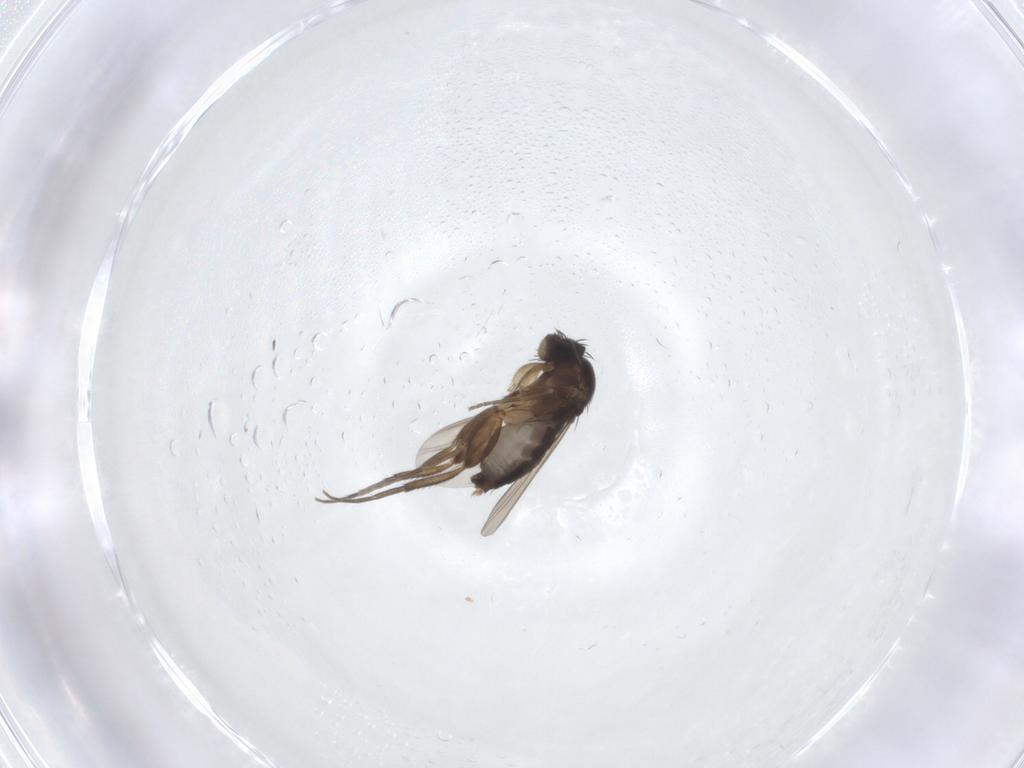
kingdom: Animalia
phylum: Arthropoda
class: Insecta
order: Diptera
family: Phoridae
